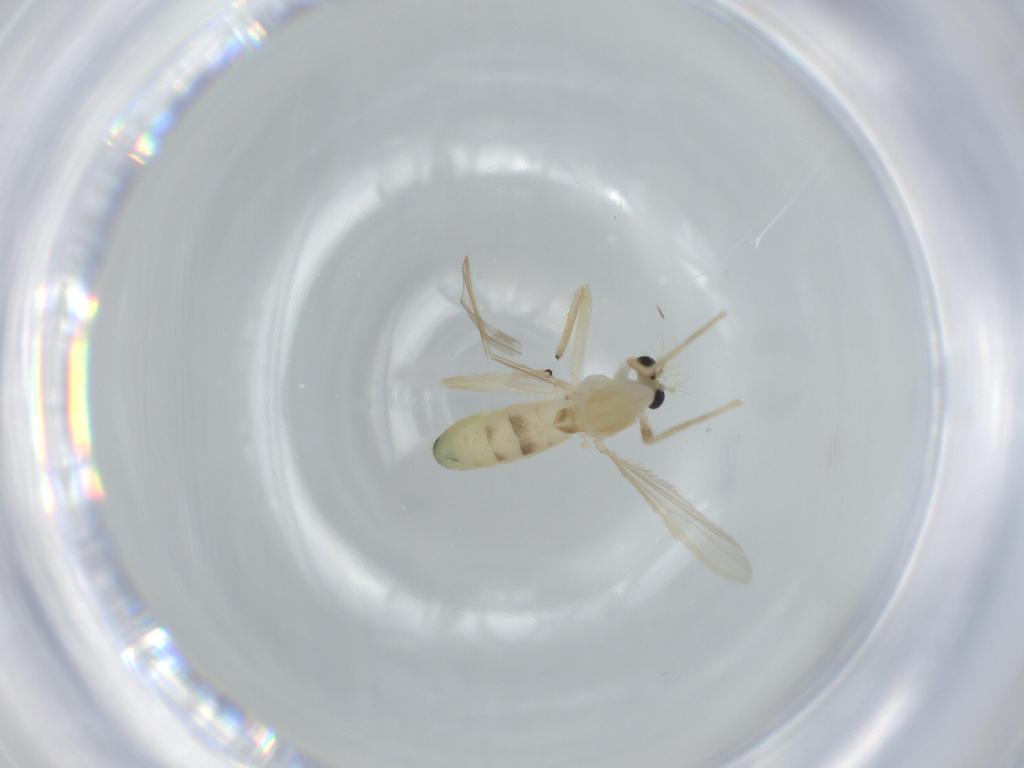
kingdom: Animalia
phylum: Arthropoda
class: Insecta
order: Diptera
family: Chironomidae
